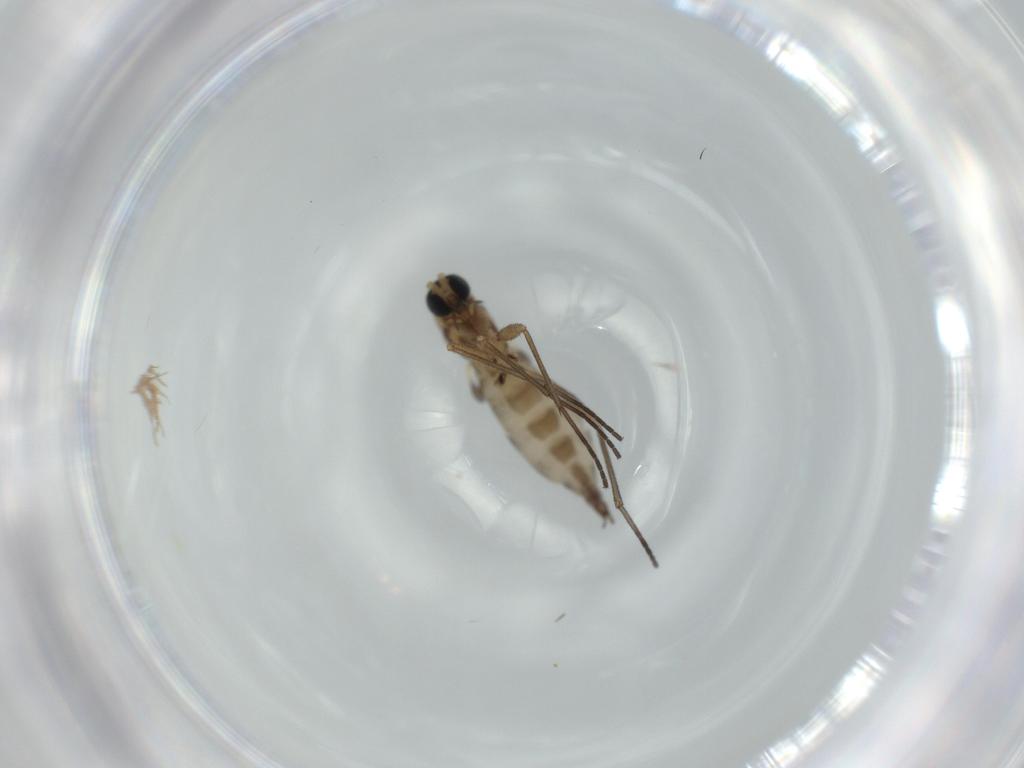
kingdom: Animalia
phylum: Arthropoda
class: Insecta
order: Diptera
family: Sciaridae
